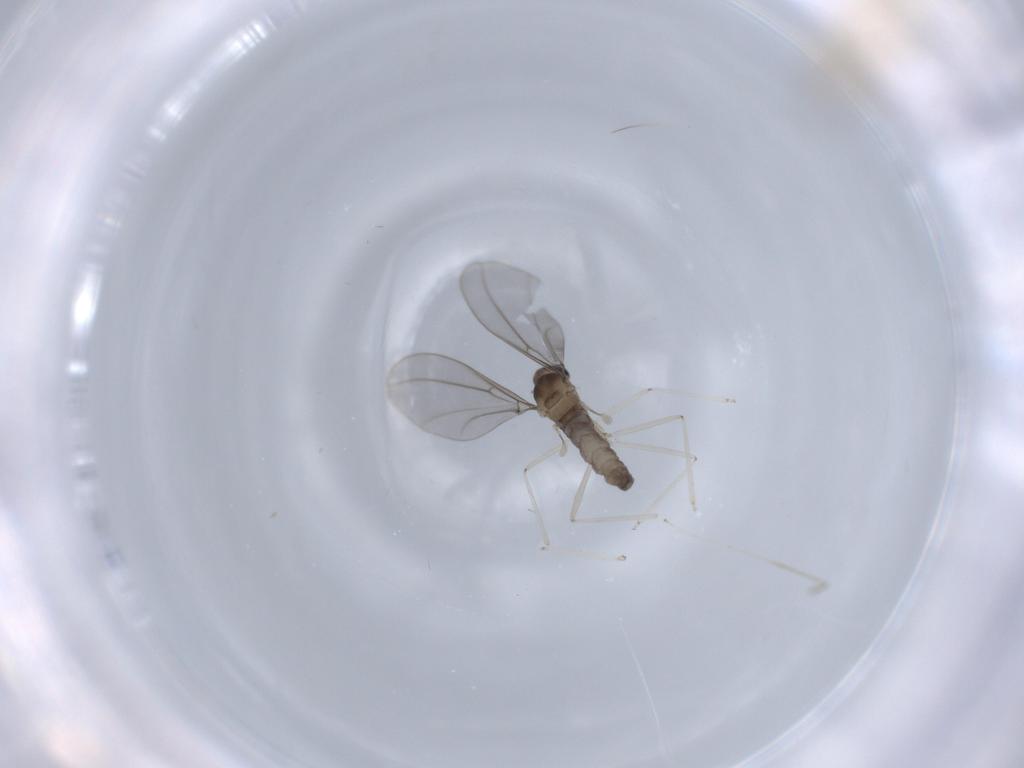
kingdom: Animalia
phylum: Arthropoda
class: Insecta
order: Diptera
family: Cecidomyiidae
